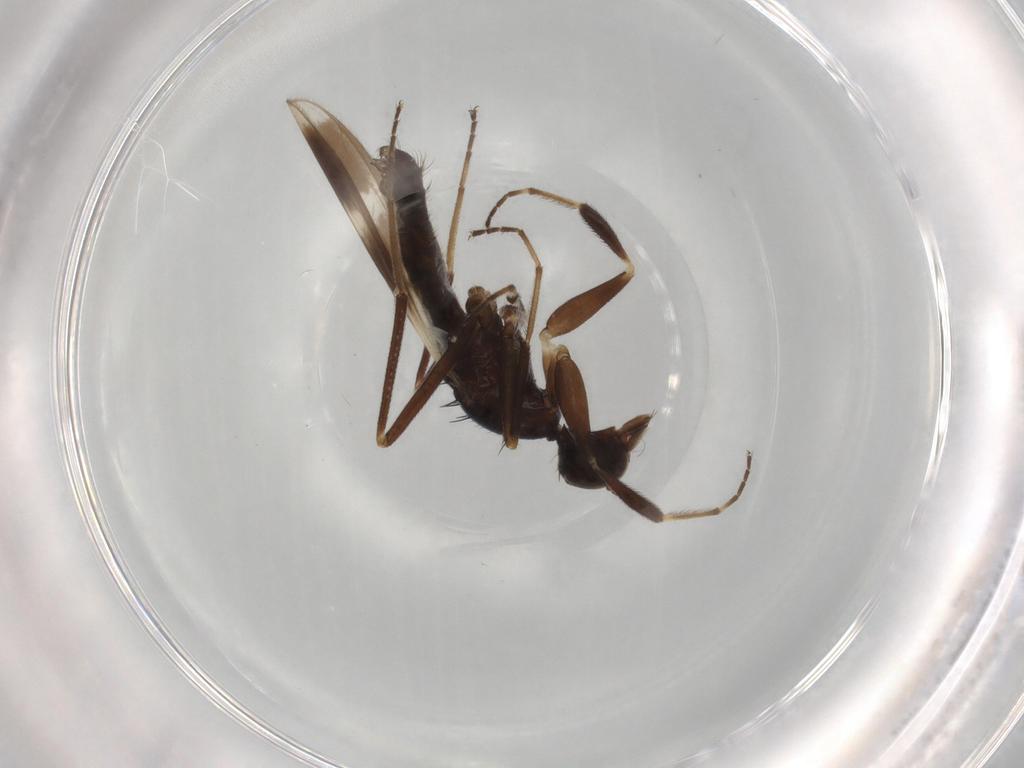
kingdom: Animalia
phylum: Arthropoda
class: Insecta
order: Diptera
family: Hybotidae
